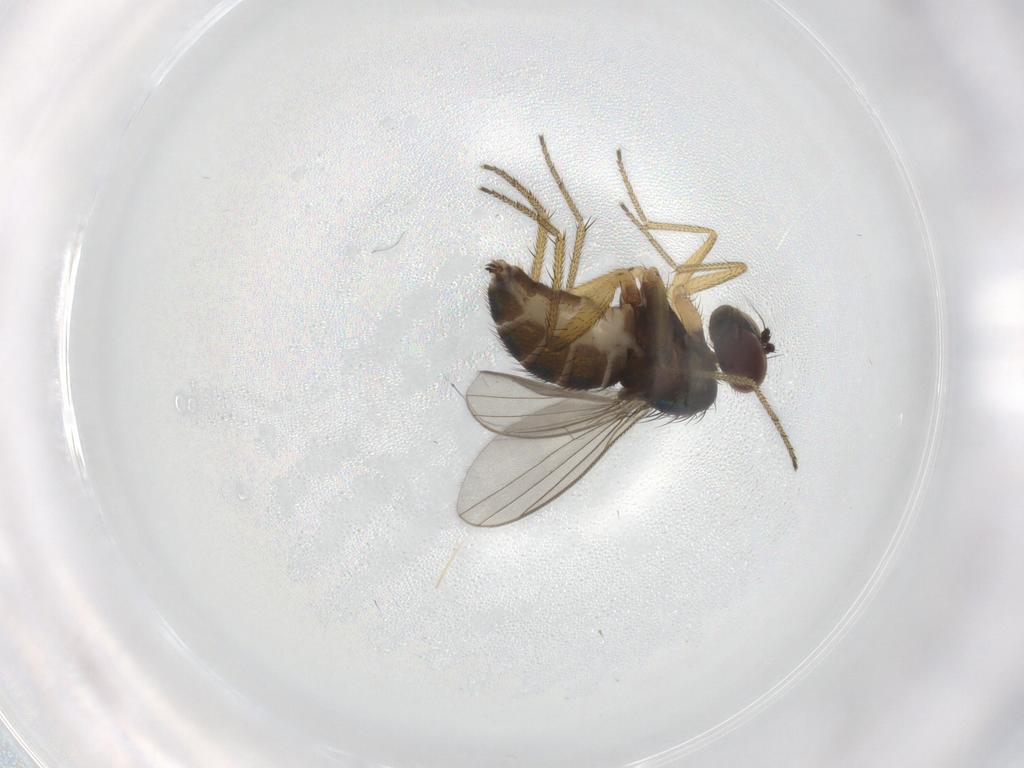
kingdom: Animalia
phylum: Arthropoda
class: Insecta
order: Diptera
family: Dolichopodidae
